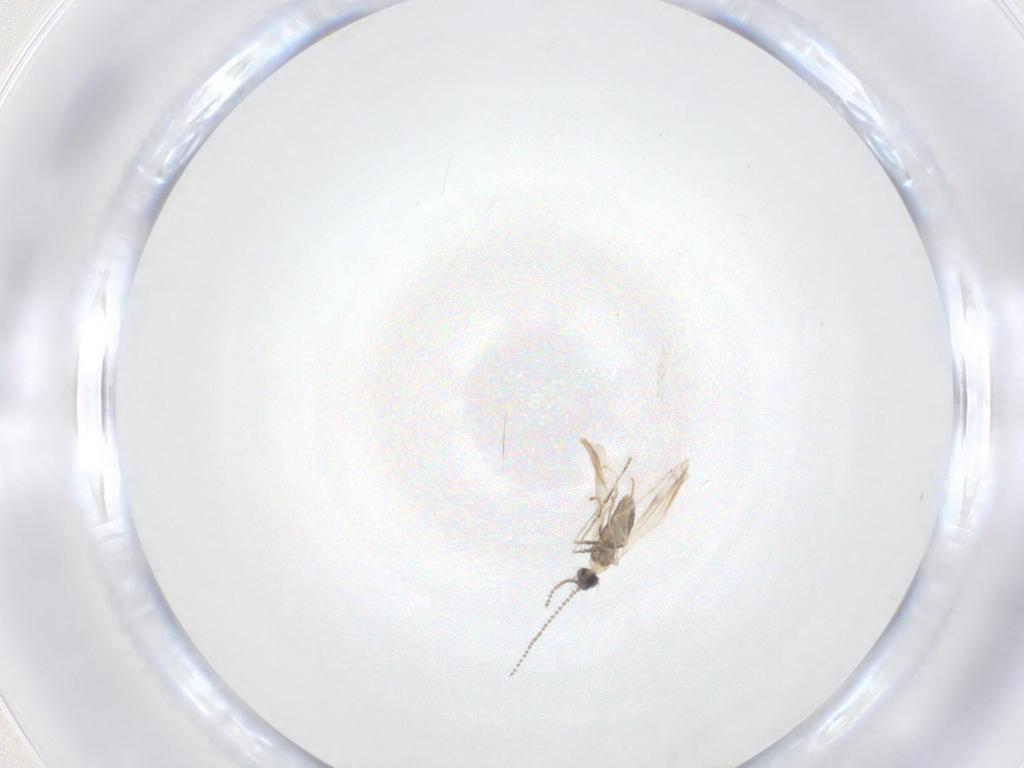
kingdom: Animalia
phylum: Arthropoda
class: Insecta
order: Diptera
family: Cecidomyiidae
